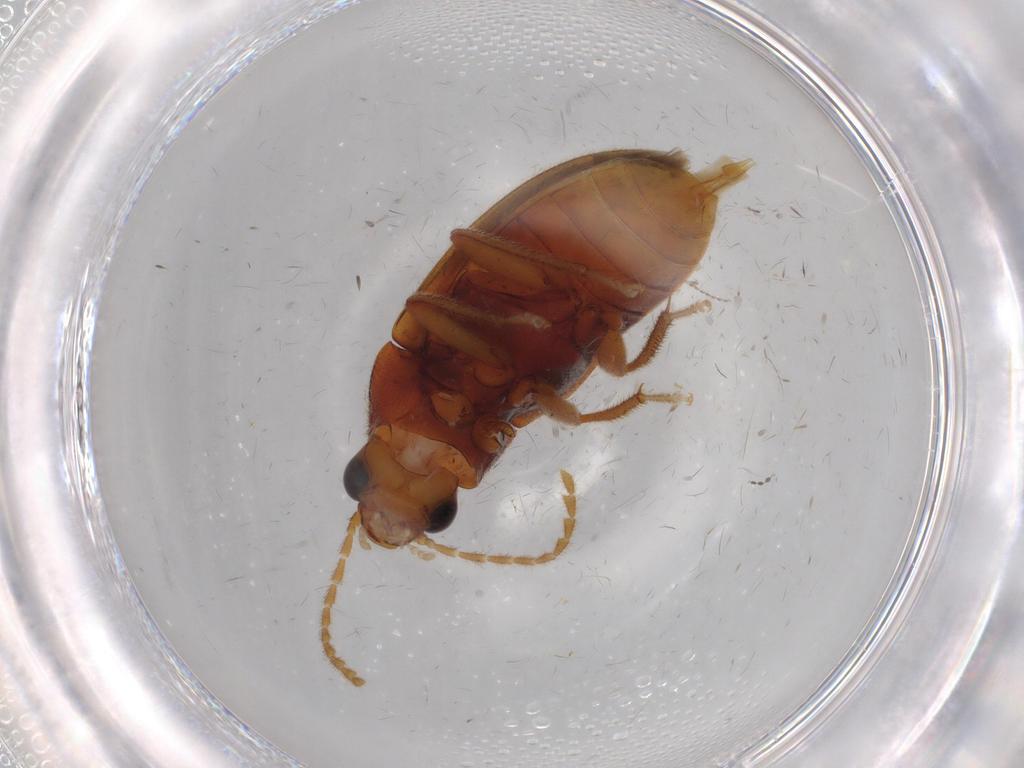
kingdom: Animalia
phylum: Arthropoda
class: Insecta
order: Coleoptera
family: Ptilodactylidae
